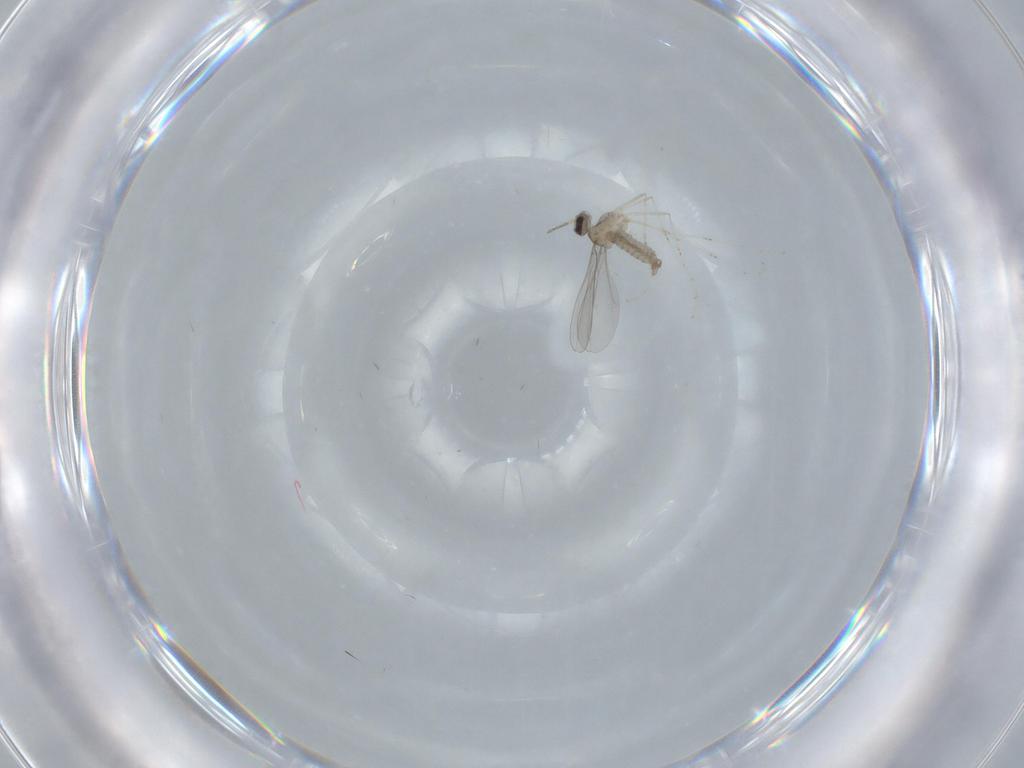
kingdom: Animalia
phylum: Arthropoda
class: Insecta
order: Diptera
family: Cecidomyiidae
